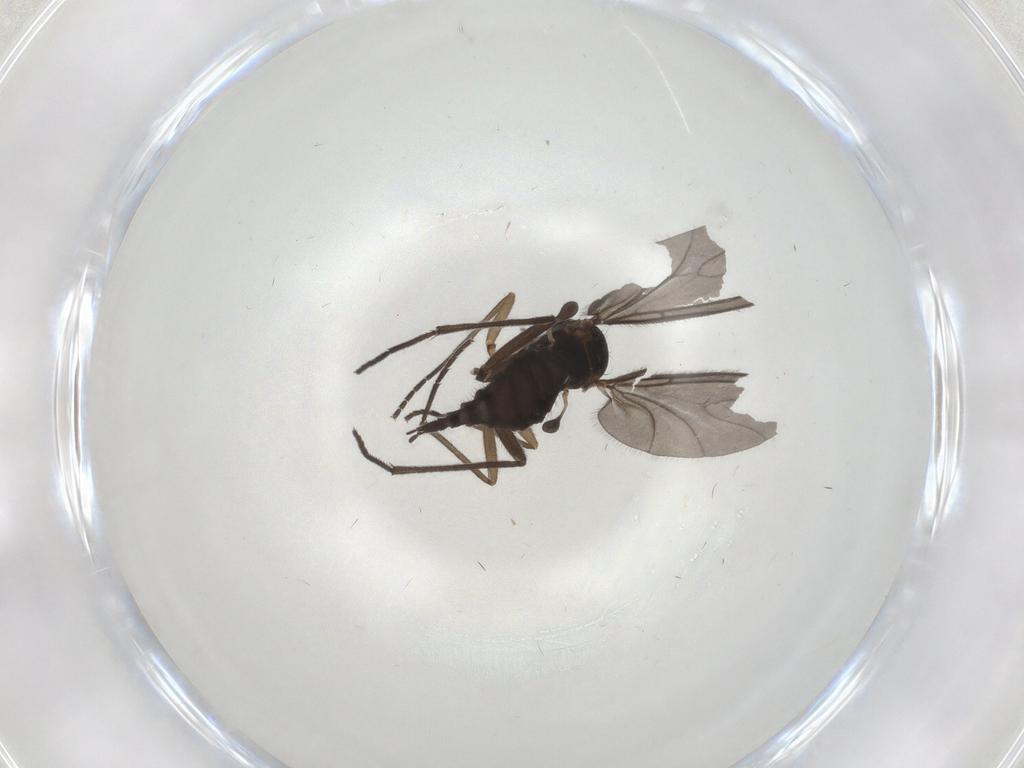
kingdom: Animalia
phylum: Arthropoda
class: Insecta
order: Diptera
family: Sciaridae
